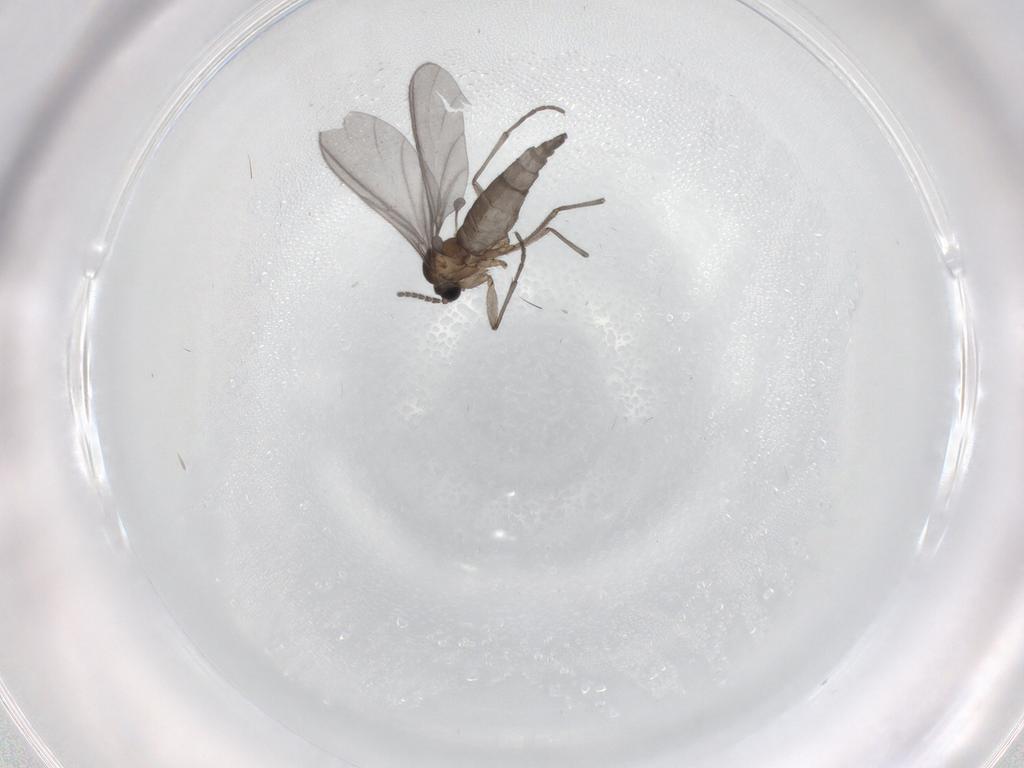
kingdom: Animalia
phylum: Arthropoda
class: Insecta
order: Diptera
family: Sciaridae
